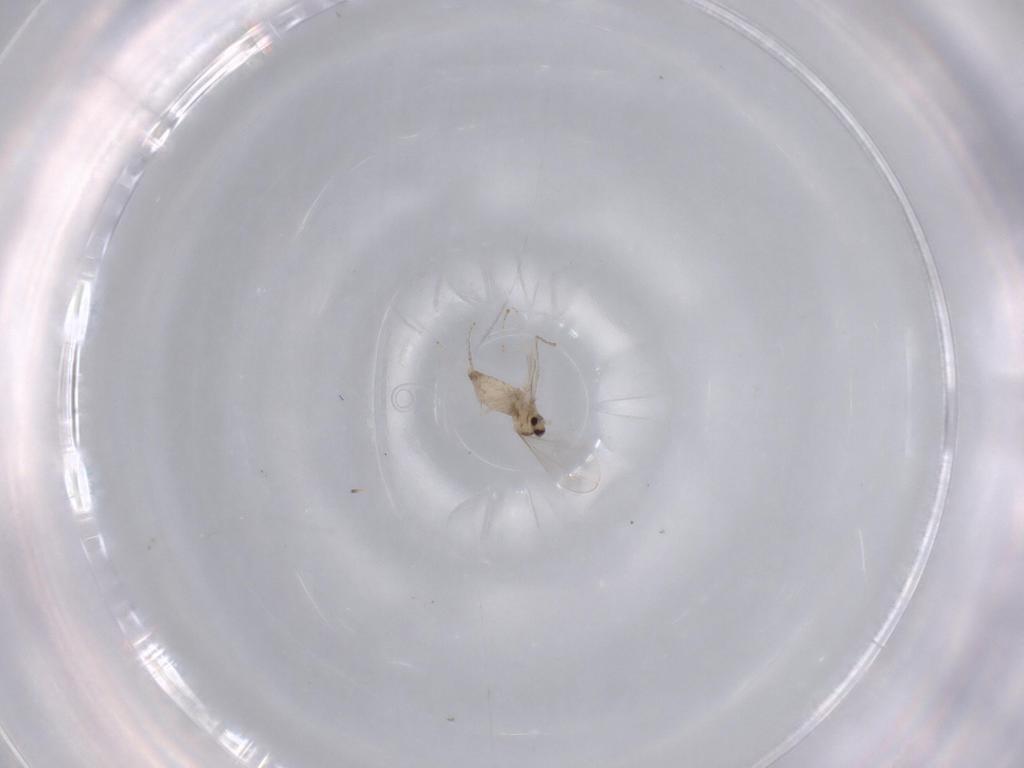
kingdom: Animalia
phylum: Arthropoda
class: Insecta
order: Diptera
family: Cecidomyiidae
